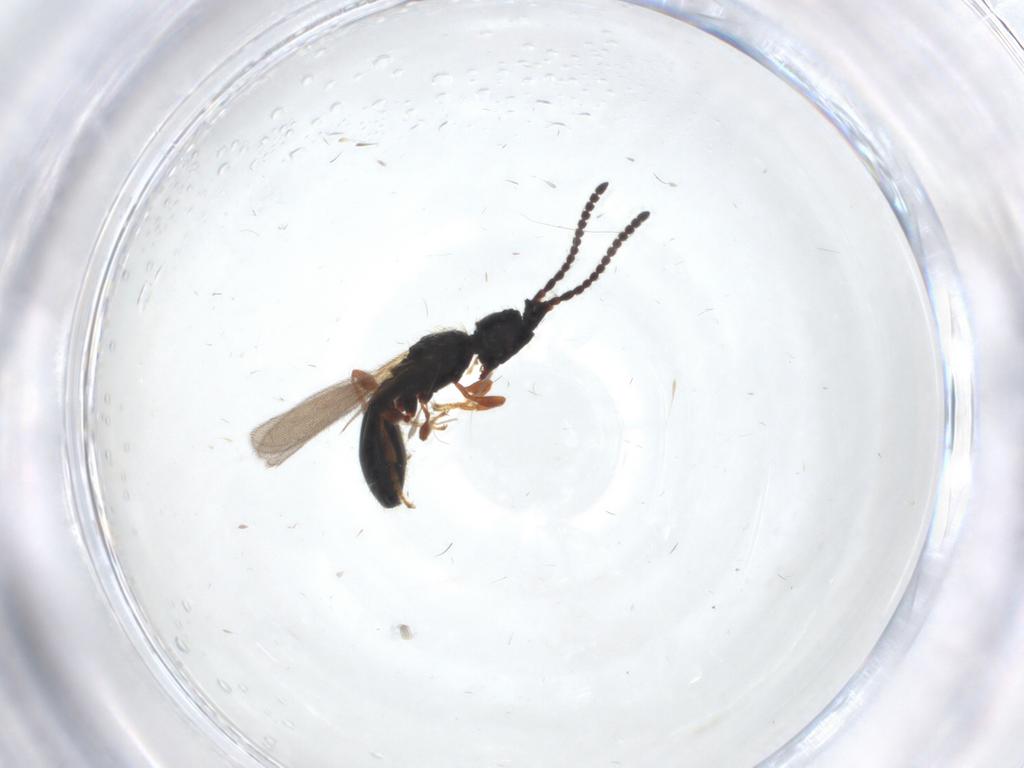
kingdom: Animalia
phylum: Arthropoda
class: Insecta
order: Hymenoptera
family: Diapriidae
